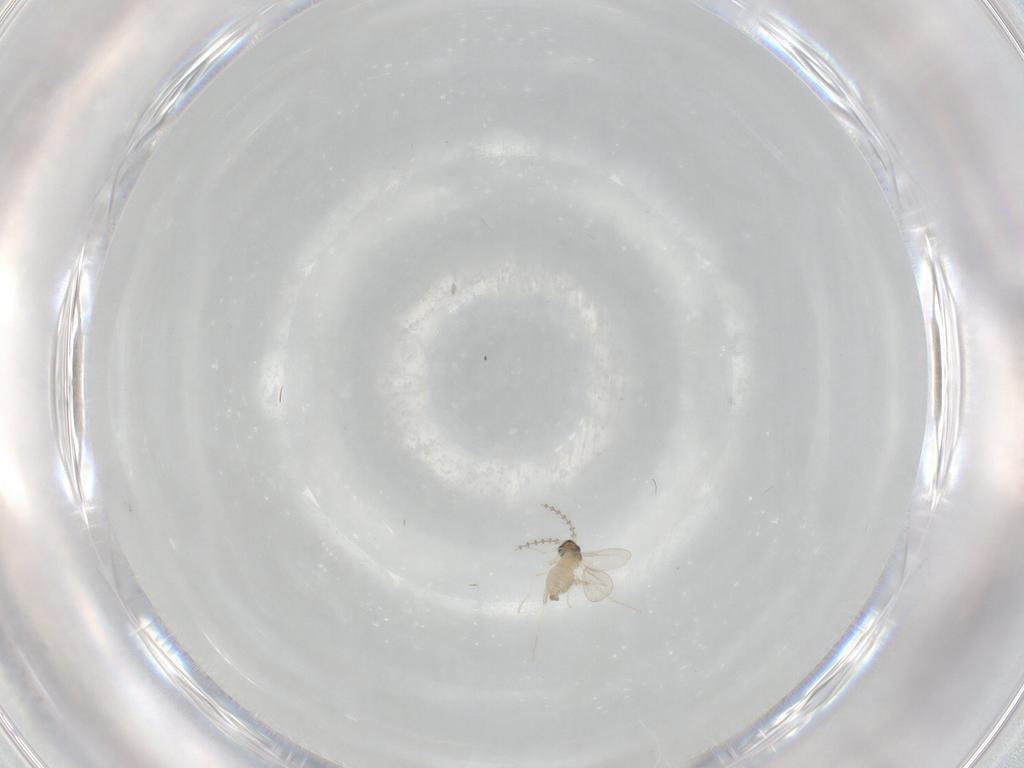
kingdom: Animalia
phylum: Arthropoda
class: Insecta
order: Diptera
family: Cecidomyiidae
